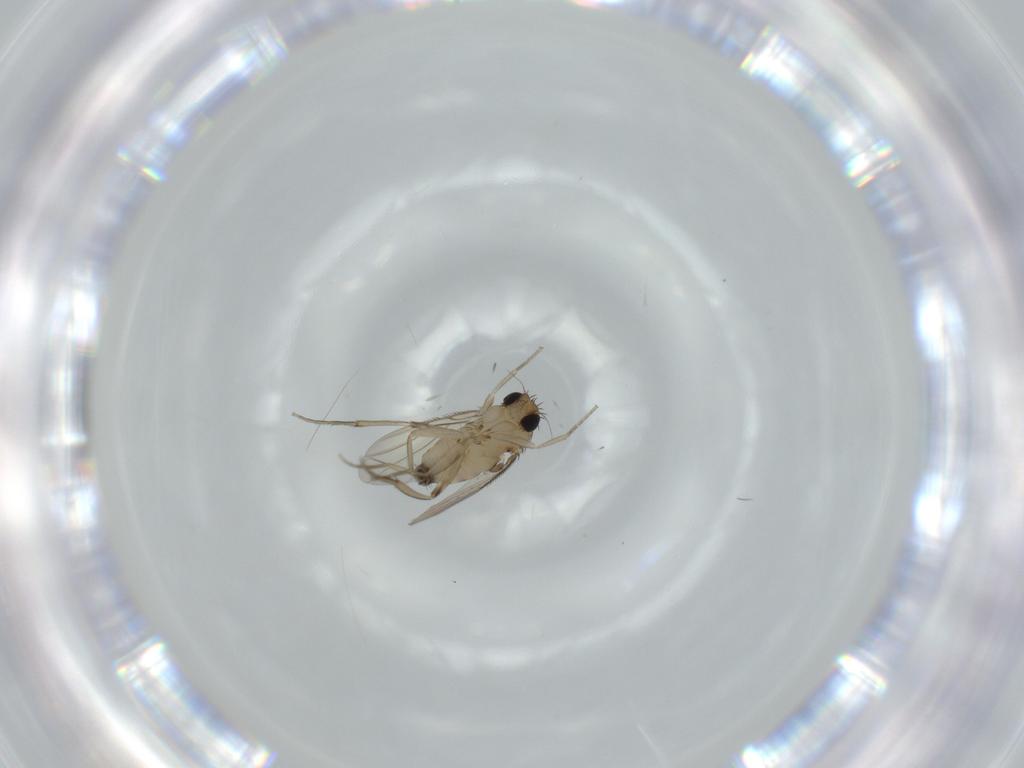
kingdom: Animalia
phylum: Arthropoda
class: Insecta
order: Diptera
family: Phoridae
